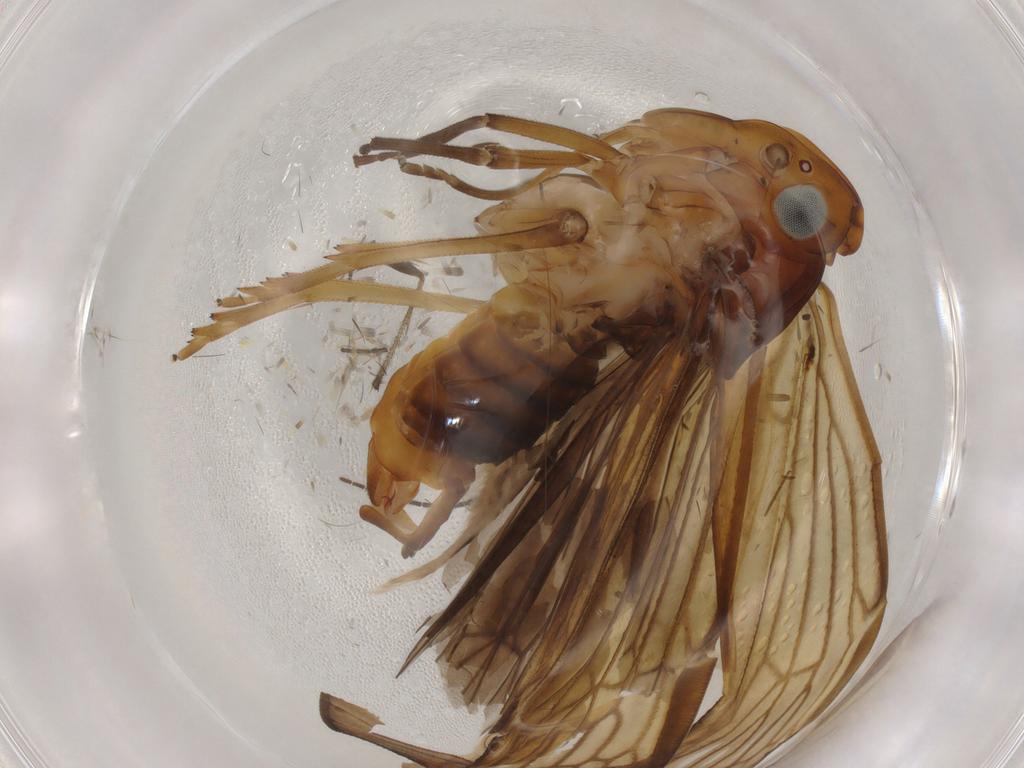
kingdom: Animalia
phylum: Arthropoda
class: Insecta
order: Hemiptera
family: Cixiidae
